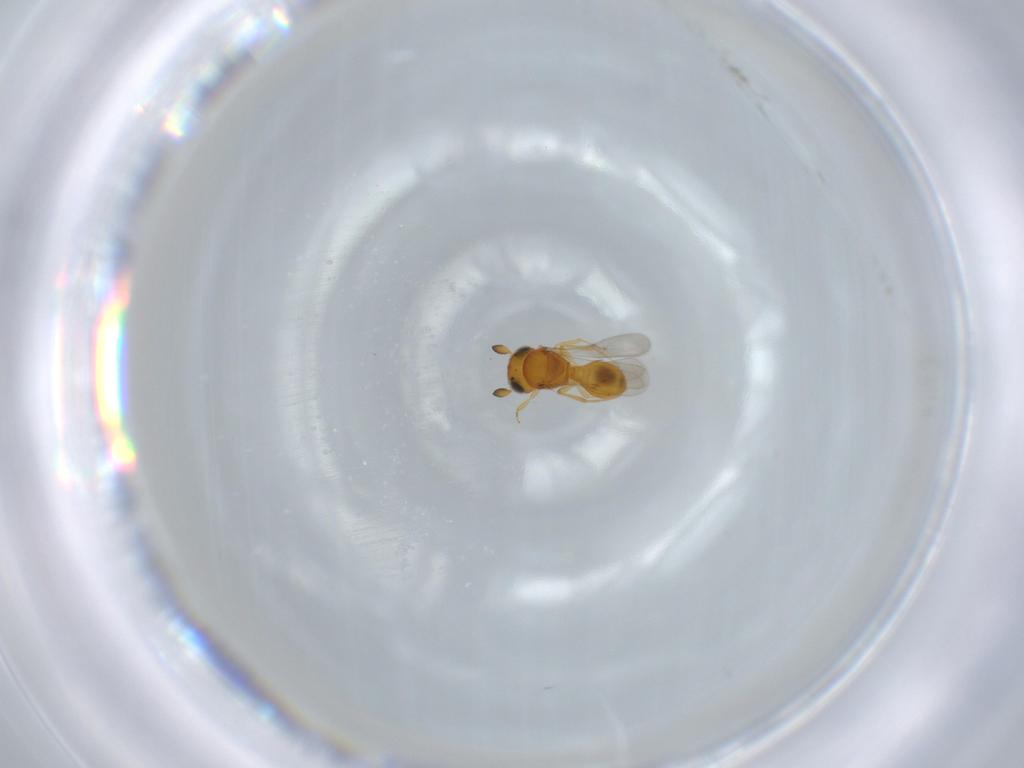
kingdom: Animalia
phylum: Arthropoda
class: Insecta
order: Hymenoptera
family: Scelionidae
